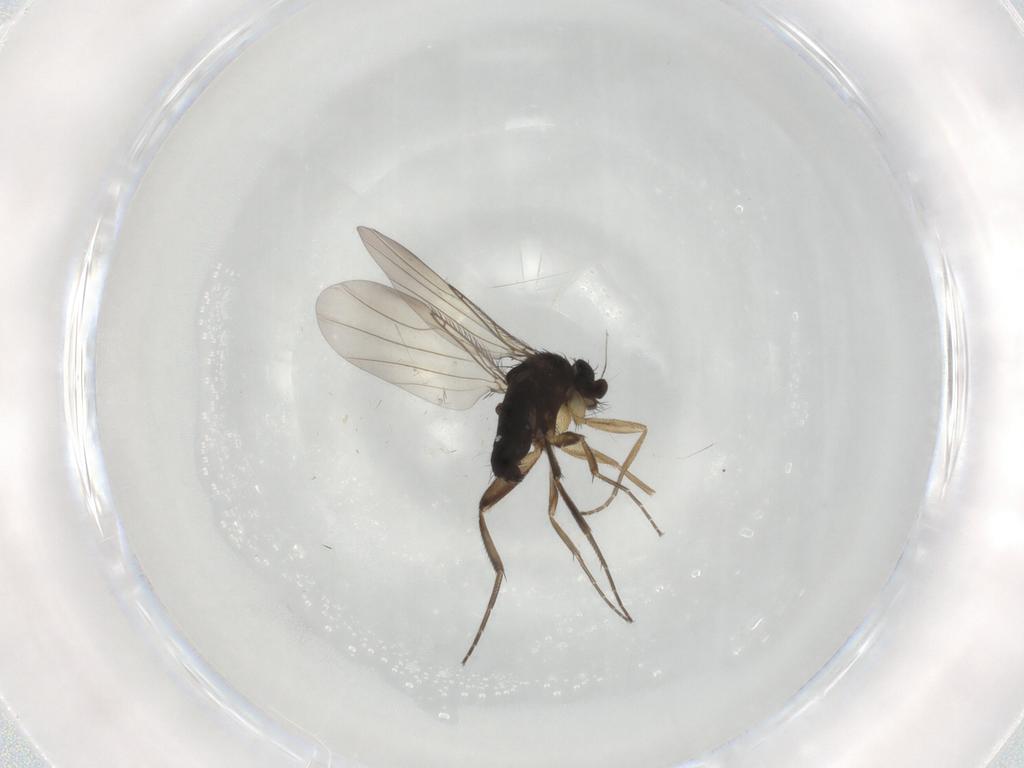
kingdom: Animalia
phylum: Arthropoda
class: Insecta
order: Diptera
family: Phoridae
